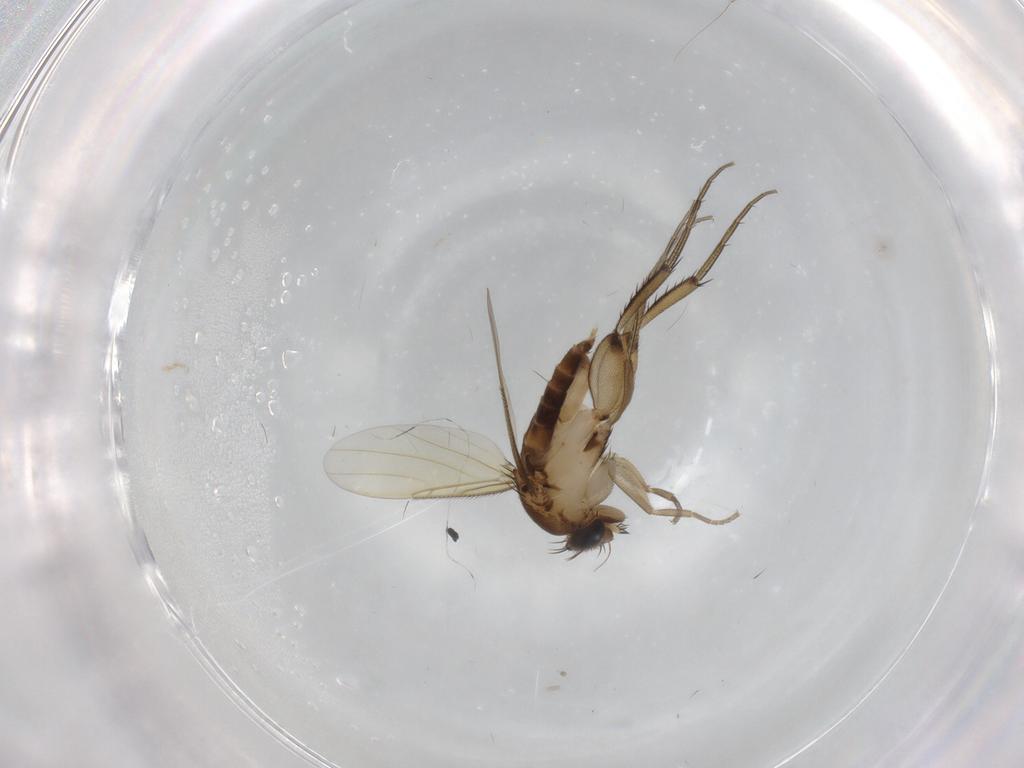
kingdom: Animalia
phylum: Arthropoda
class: Insecta
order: Diptera
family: Phoridae
